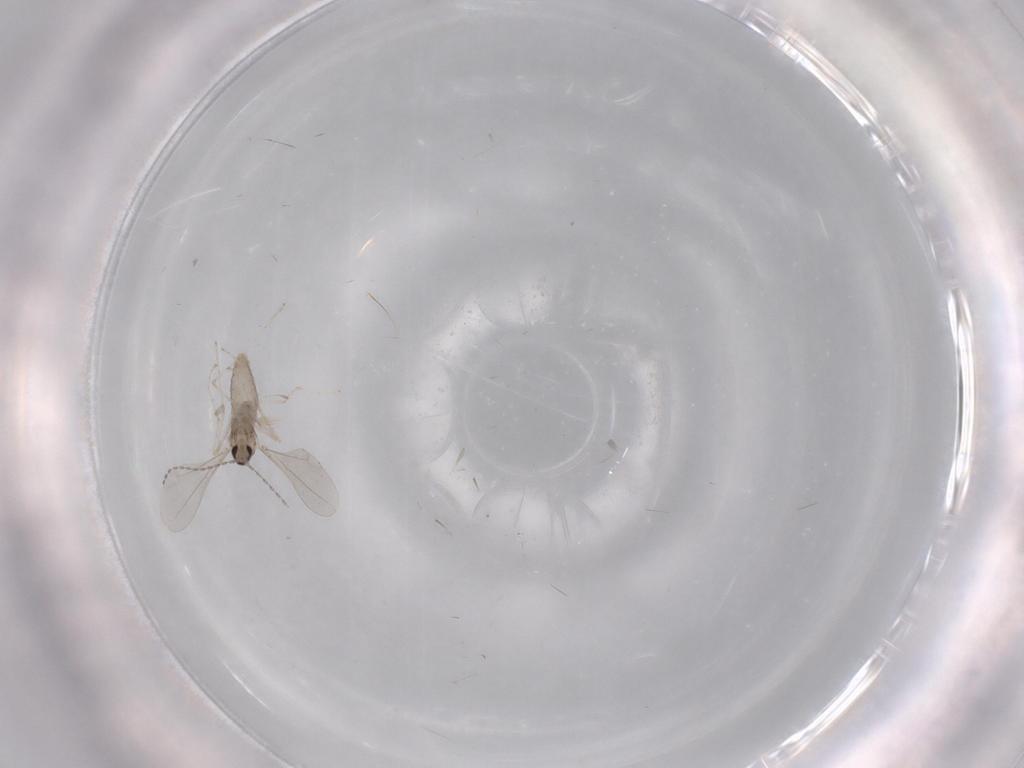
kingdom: Animalia
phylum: Arthropoda
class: Insecta
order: Diptera
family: Cecidomyiidae
